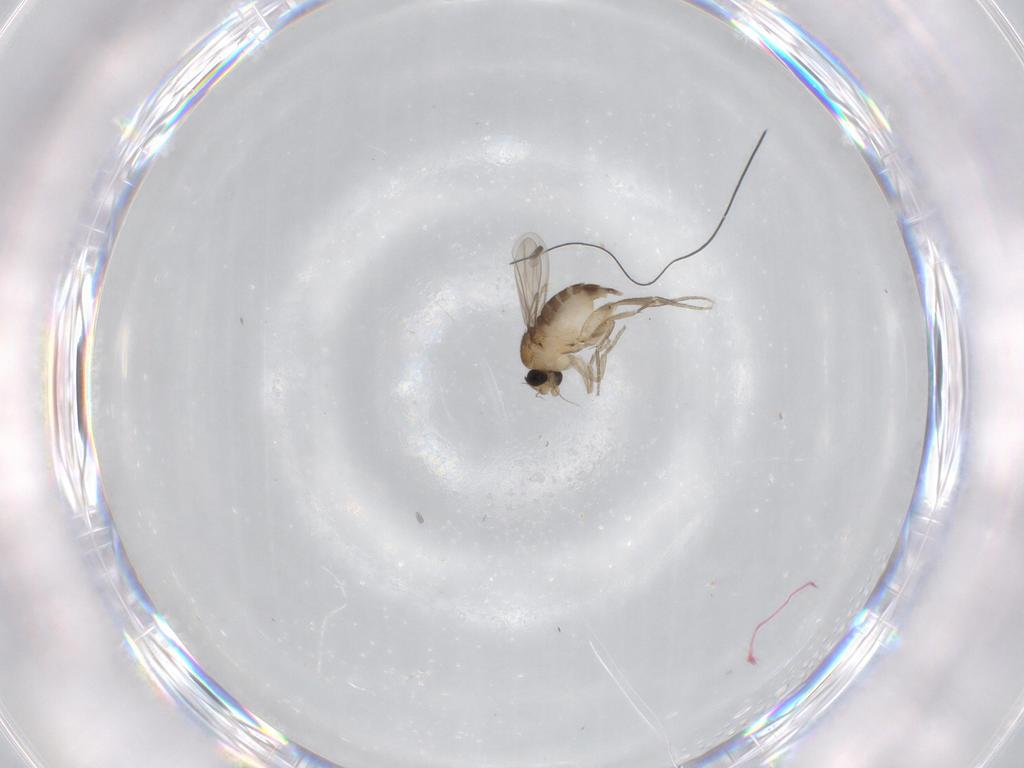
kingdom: Animalia
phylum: Arthropoda
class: Insecta
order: Diptera
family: Phoridae
